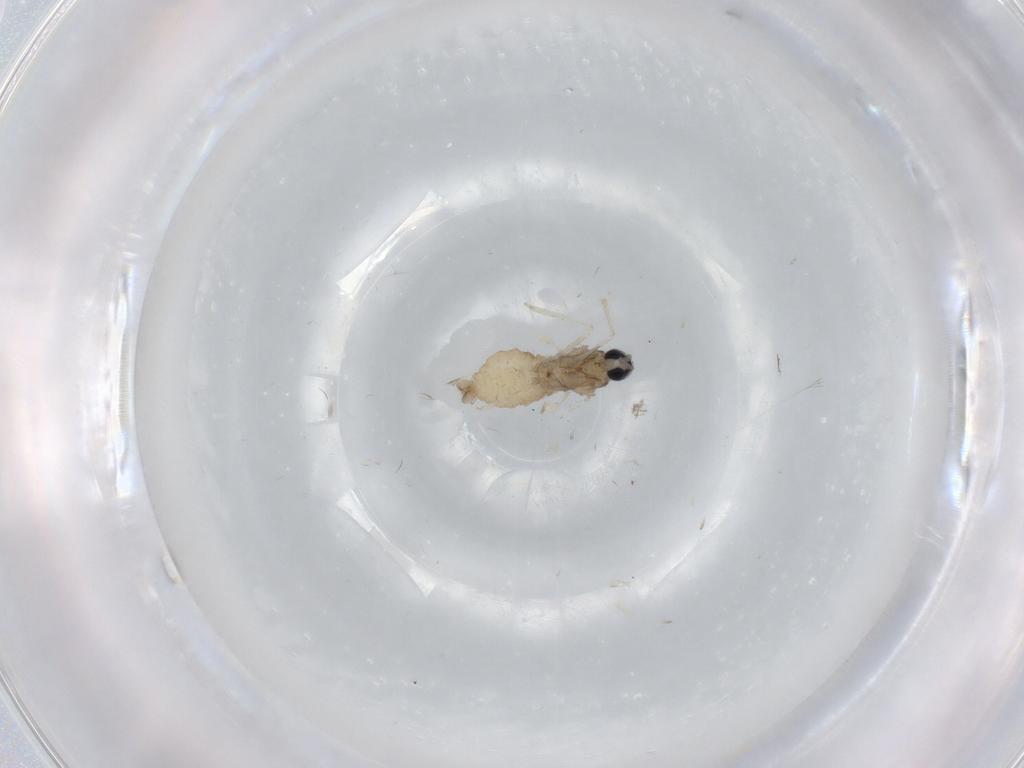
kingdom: Animalia
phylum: Arthropoda
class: Insecta
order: Diptera
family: Cecidomyiidae
